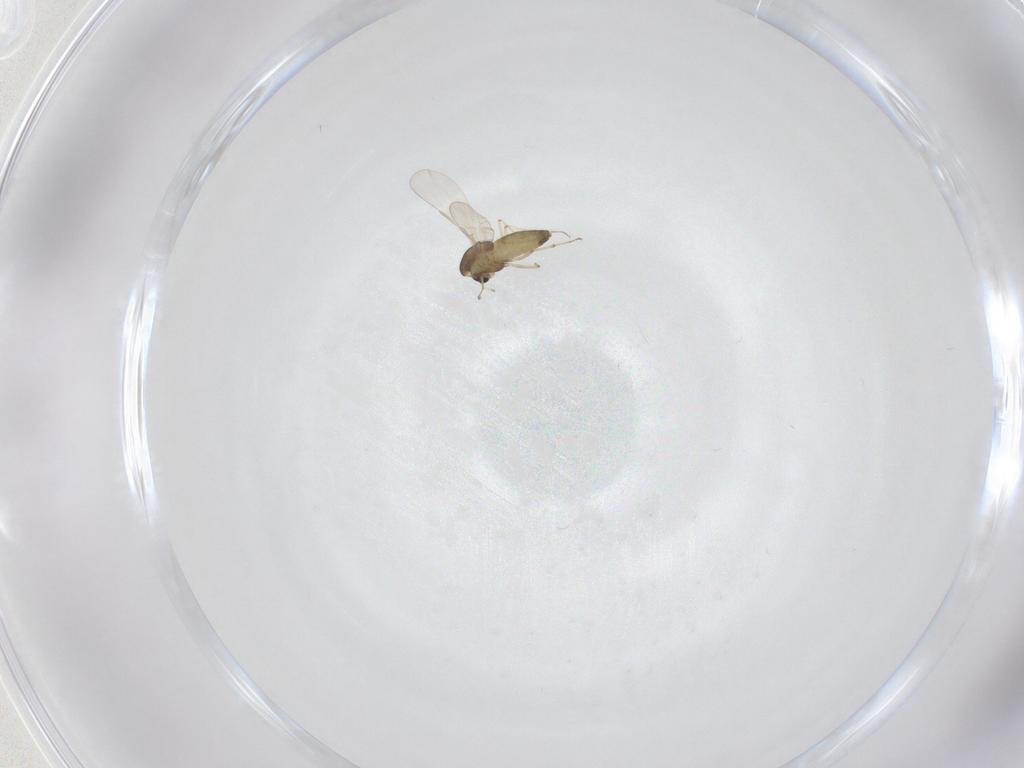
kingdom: Animalia
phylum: Arthropoda
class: Insecta
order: Diptera
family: Chironomidae
